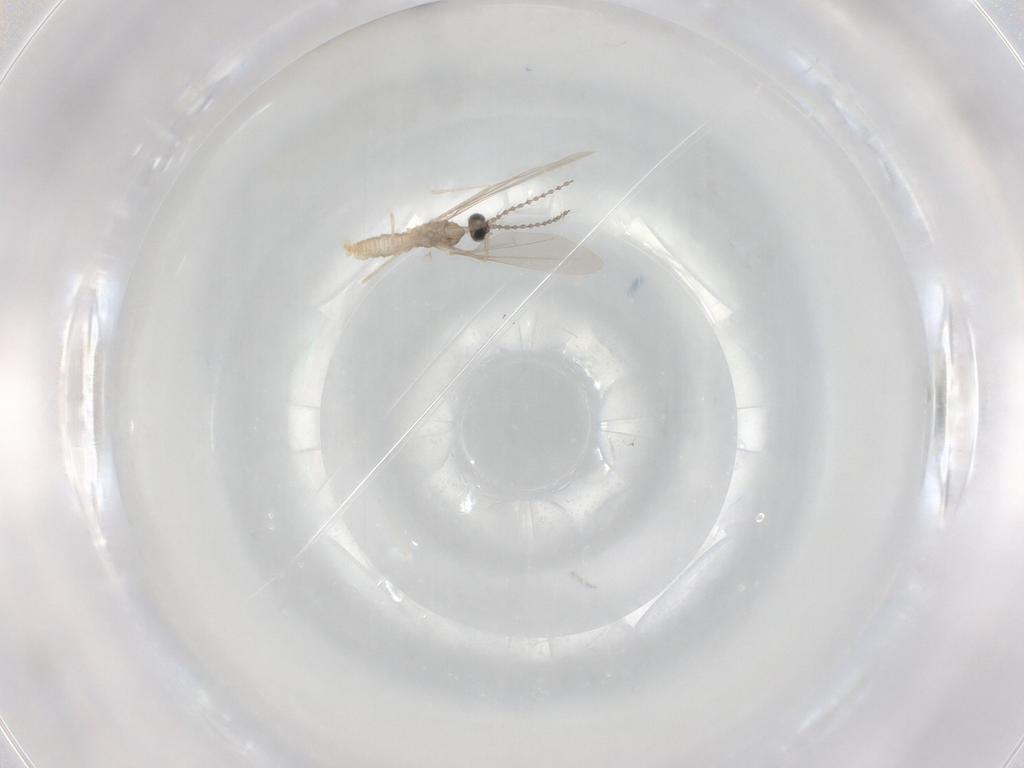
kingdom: Animalia
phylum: Arthropoda
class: Insecta
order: Diptera
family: Cecidomyiidae
